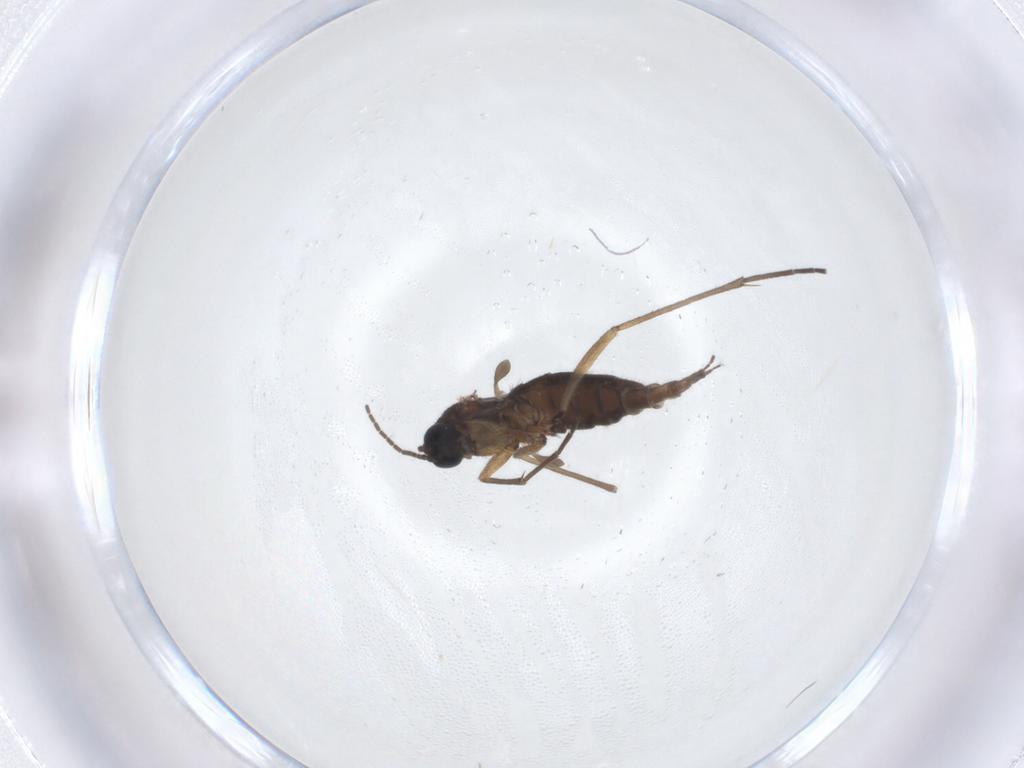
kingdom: Animalia
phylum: Arthropoda
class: Insecta
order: Diptera
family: Sciaridae
